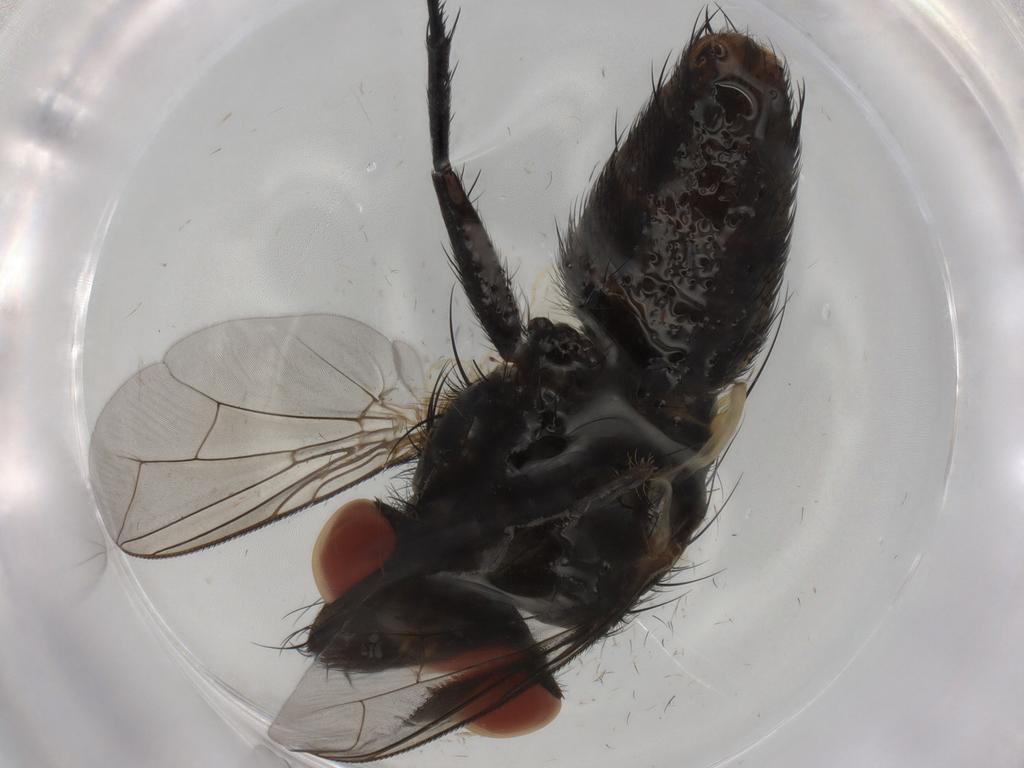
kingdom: Animalia
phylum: Arthropoda
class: Insecta
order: Diptera
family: Sarcophagidae
